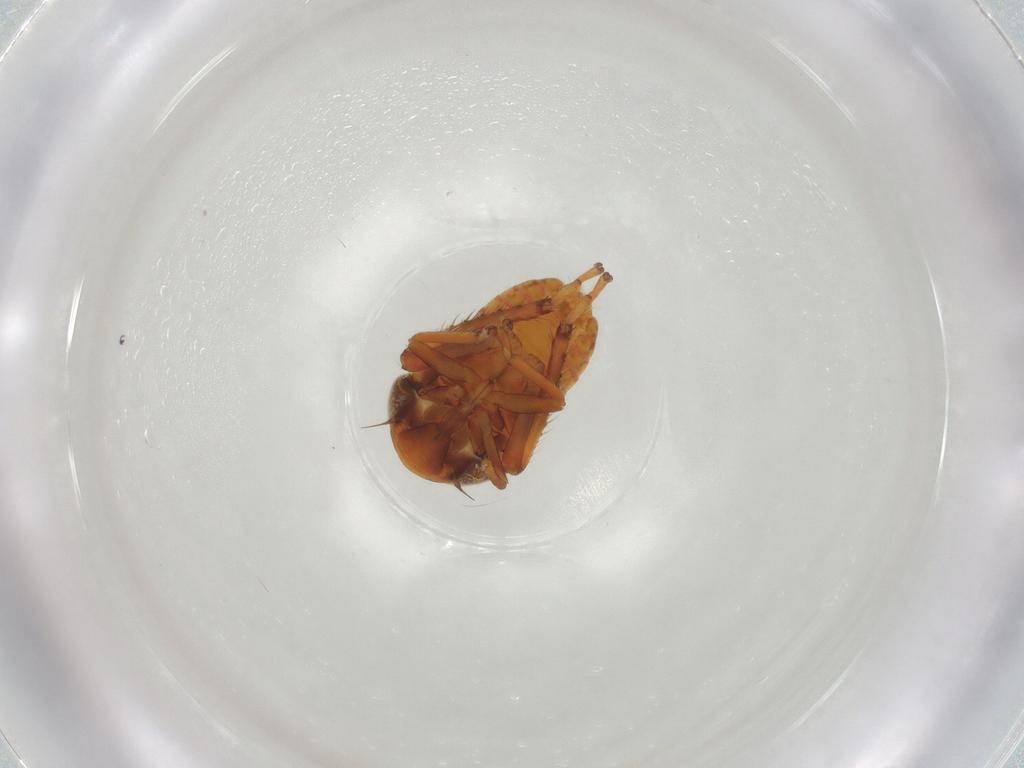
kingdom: Animalia
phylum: Arthropoda
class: Insecta
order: Hemiptera
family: Cicadellidae
